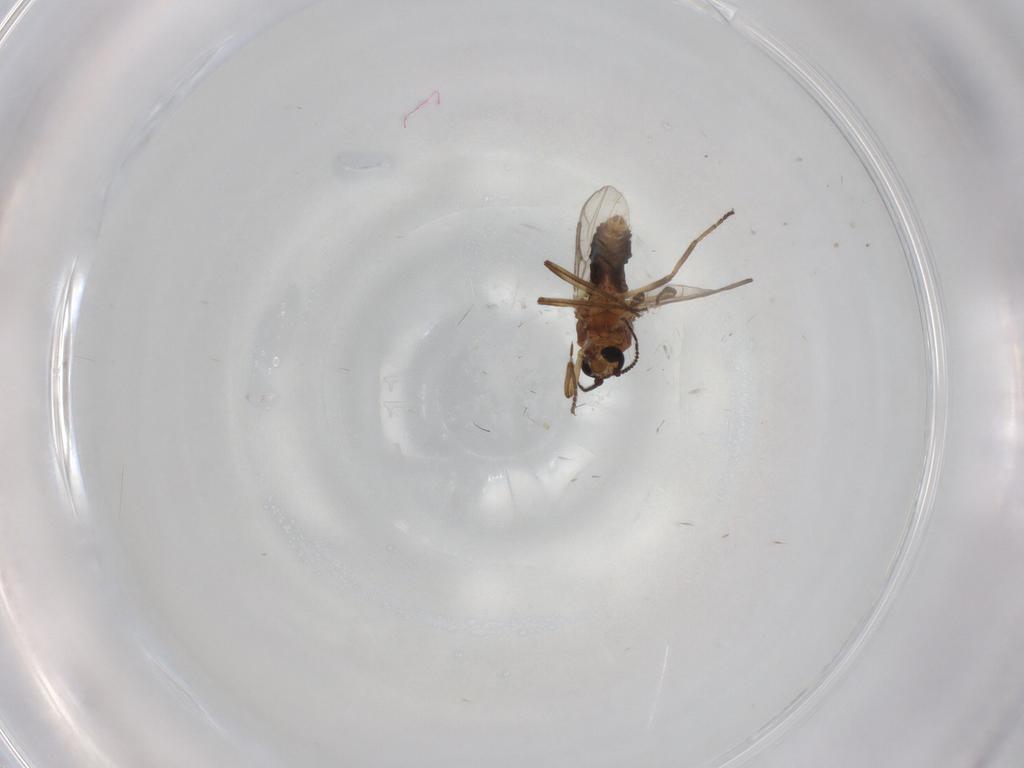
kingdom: Animalia
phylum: Arthropoda
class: Insecta
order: Diptera
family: Ceratopogonidae
